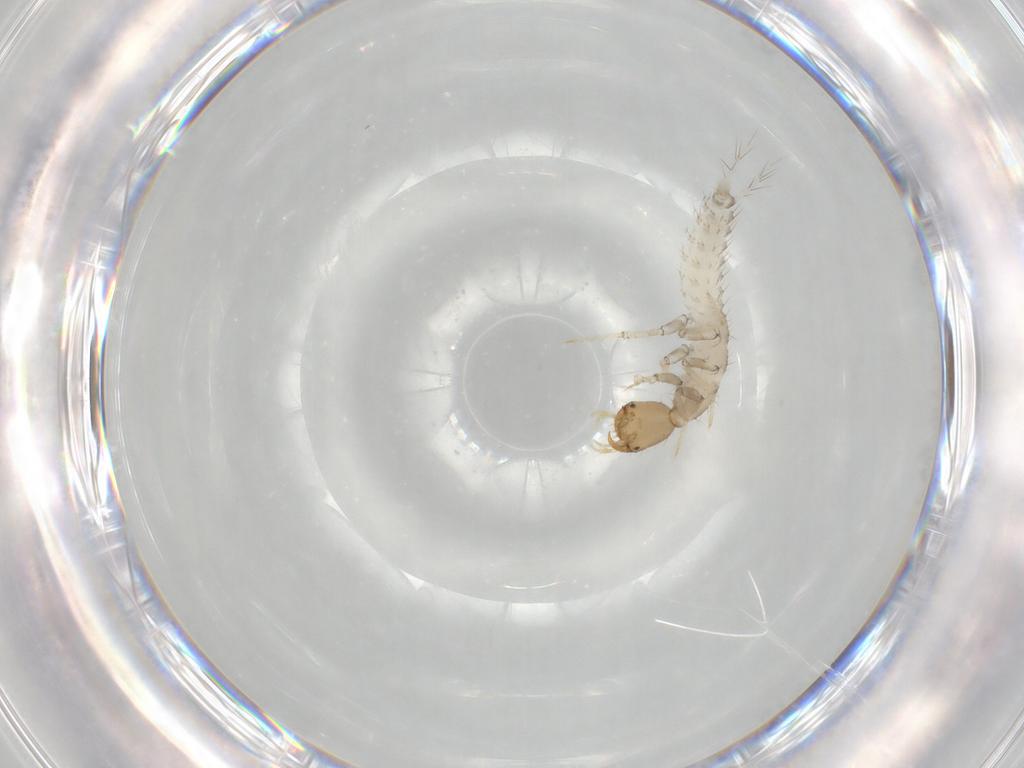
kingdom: Animalia
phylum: Arthropoda
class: Insecta
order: Coleoptera
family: Staphylinidae
